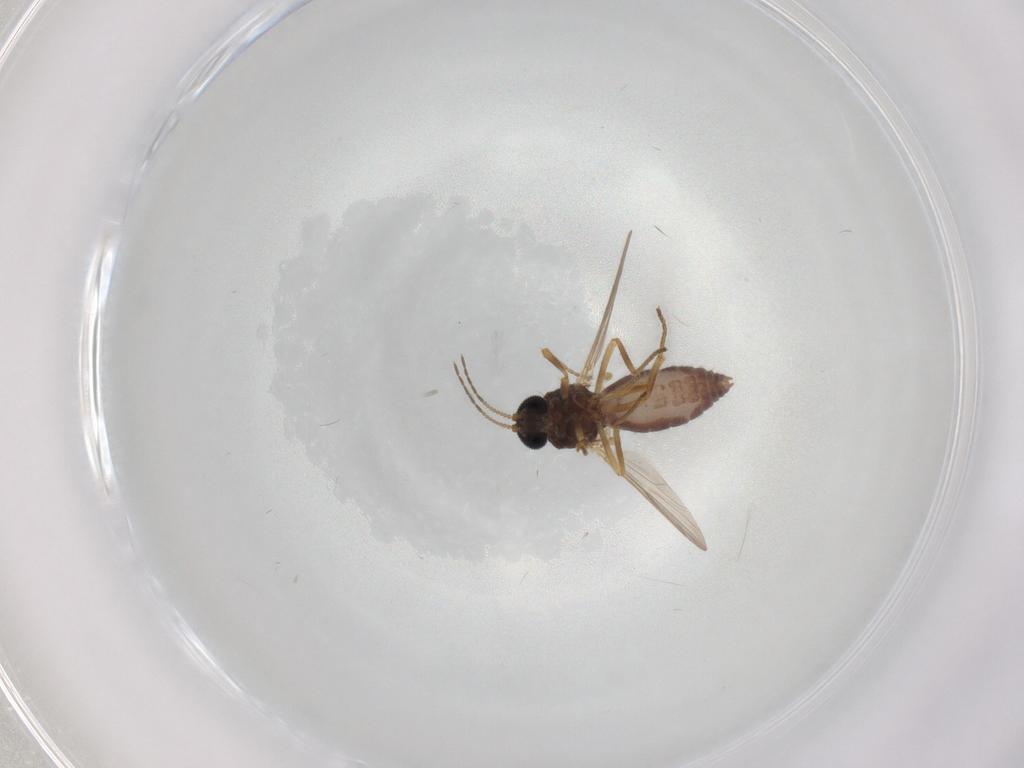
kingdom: Animalia
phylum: Arthropoda
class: Insecta
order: Diptera
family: Ceratopogonidae
